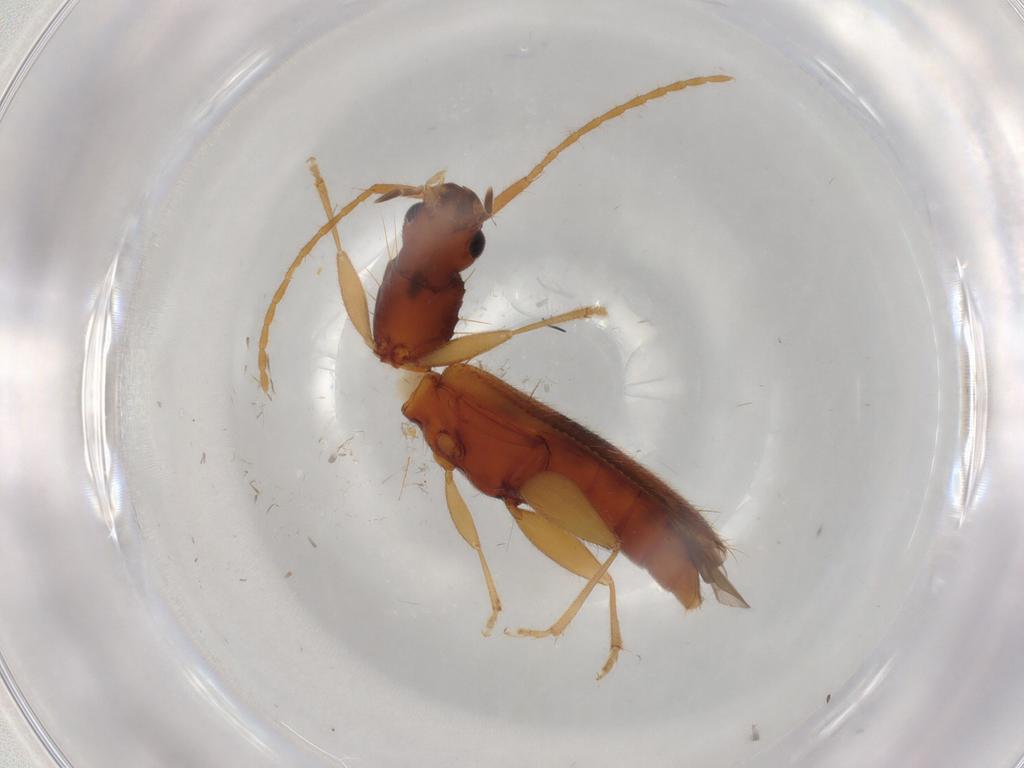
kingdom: Animalia
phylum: Arthropoda
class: Insecta
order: Coleoptera
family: Silvanidae
